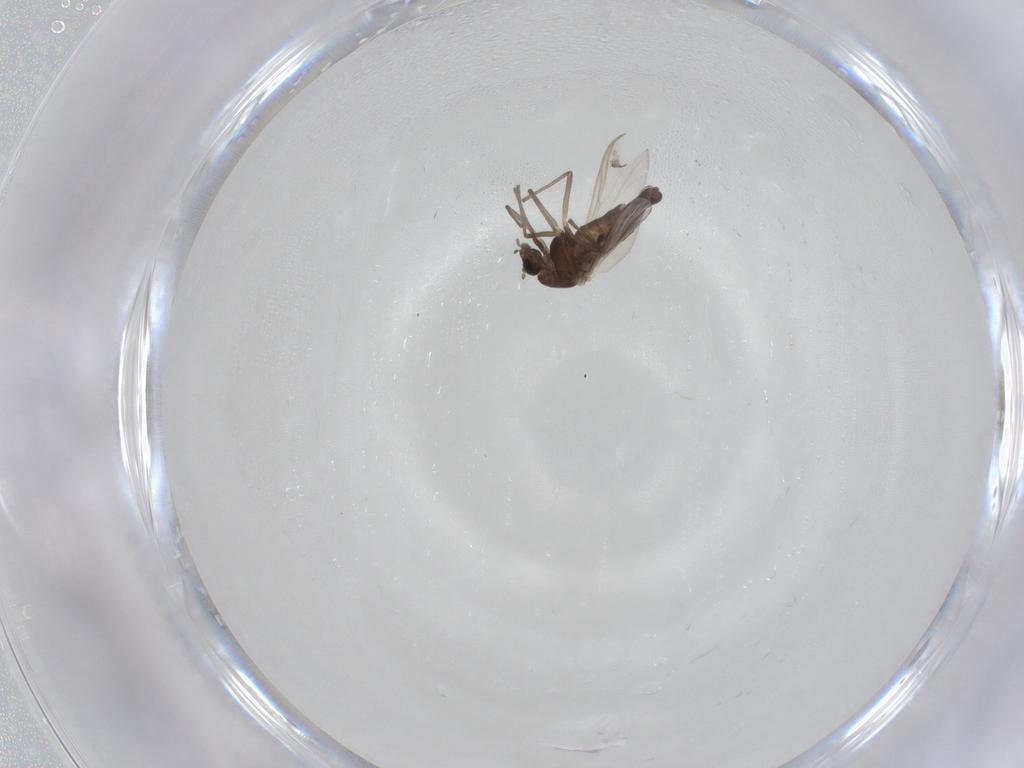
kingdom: Animalia
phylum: Arthropoda
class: Insecta
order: Diptera
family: Chironomidae
